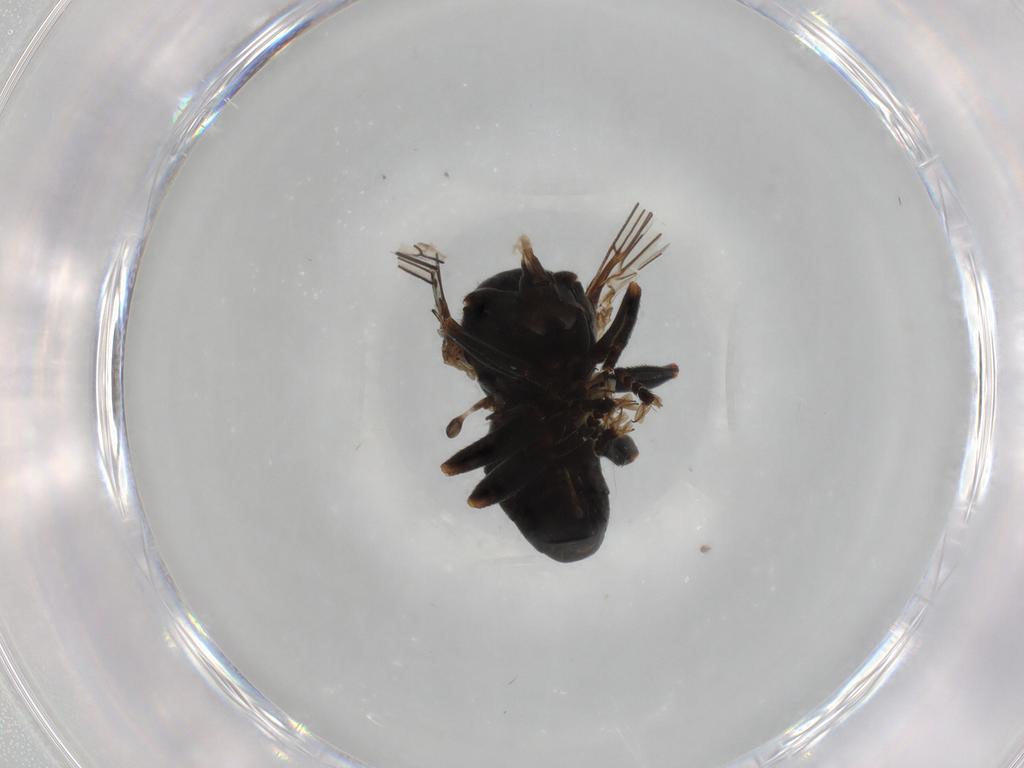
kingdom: Animalia
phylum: Arthropoda
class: Insecta
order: Diptera
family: Pipunculidae
